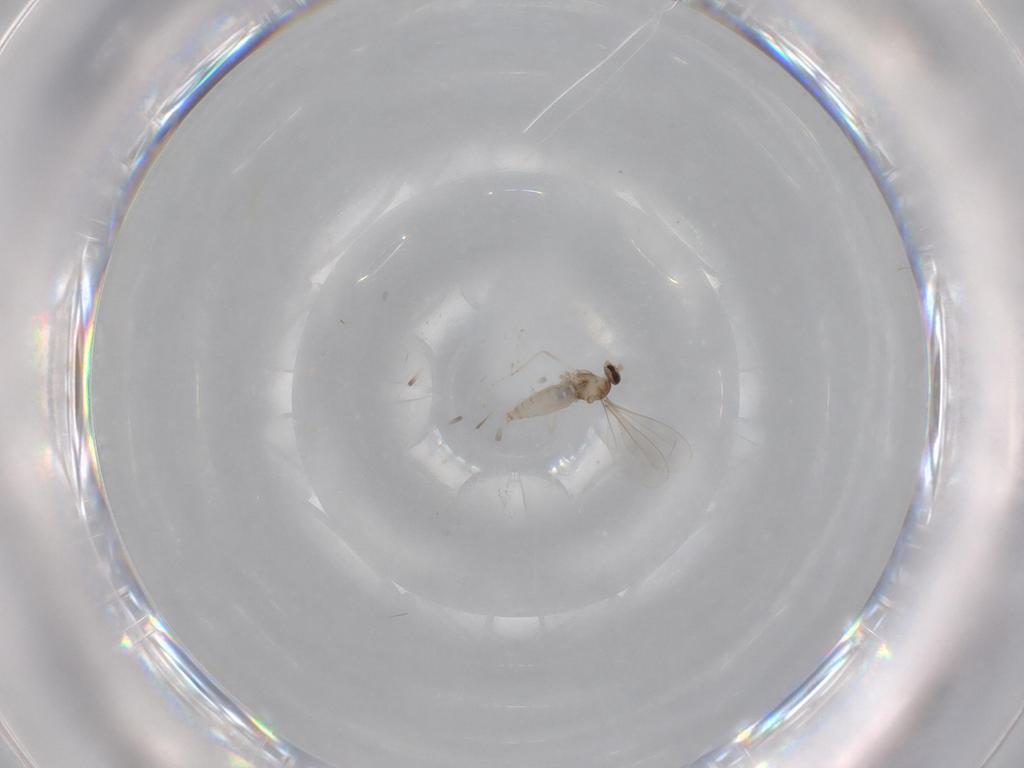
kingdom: Animalia
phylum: Arthropoda
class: Insecta
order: Diptera
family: Cecidomyiidae
